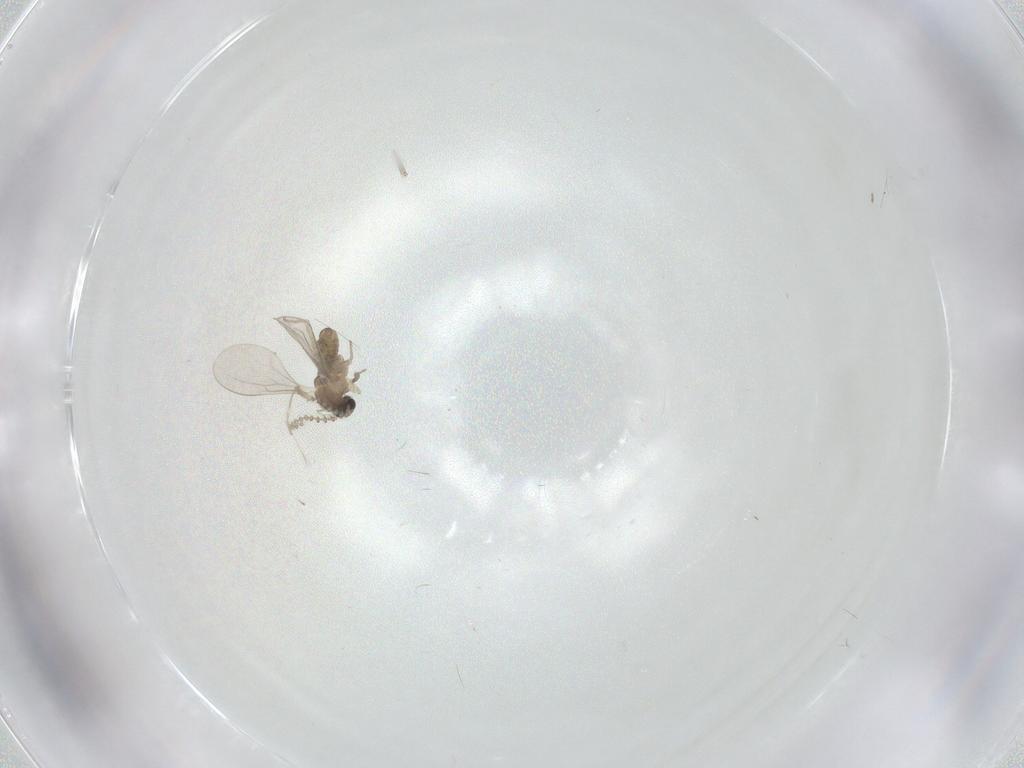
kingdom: Animalia
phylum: Arthropoda
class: Insecta
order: Diptera
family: Cecidomyiidae
